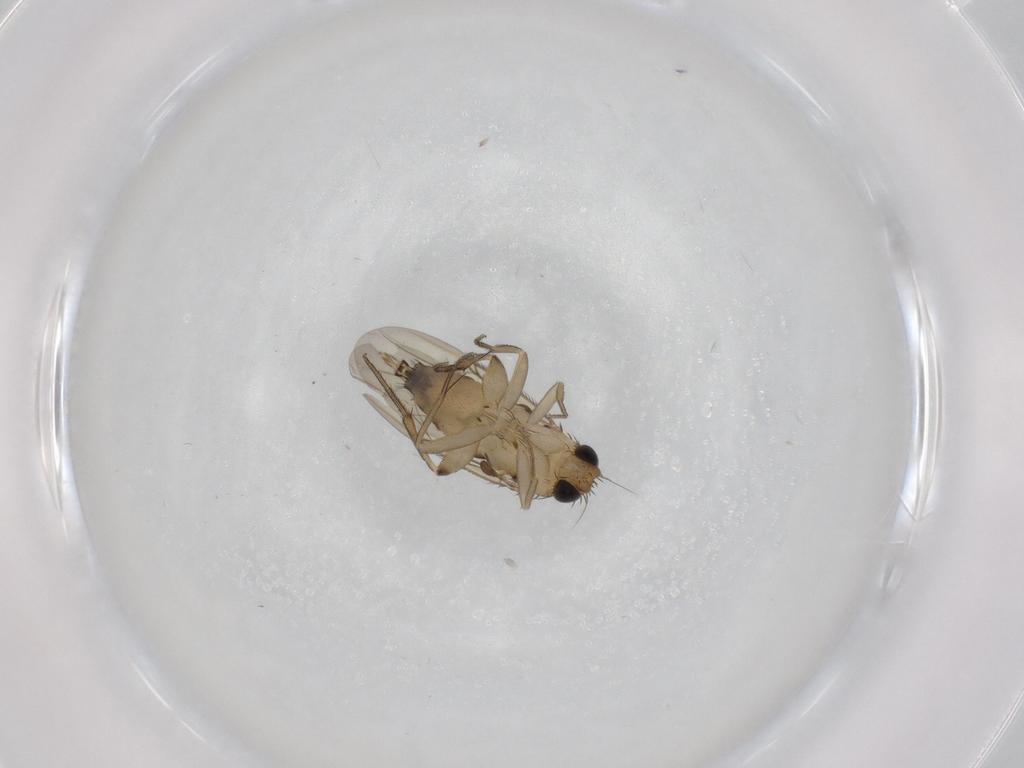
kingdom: Animalia
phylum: Arthropoda
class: Insecta
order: Diptera
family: Phoridae
